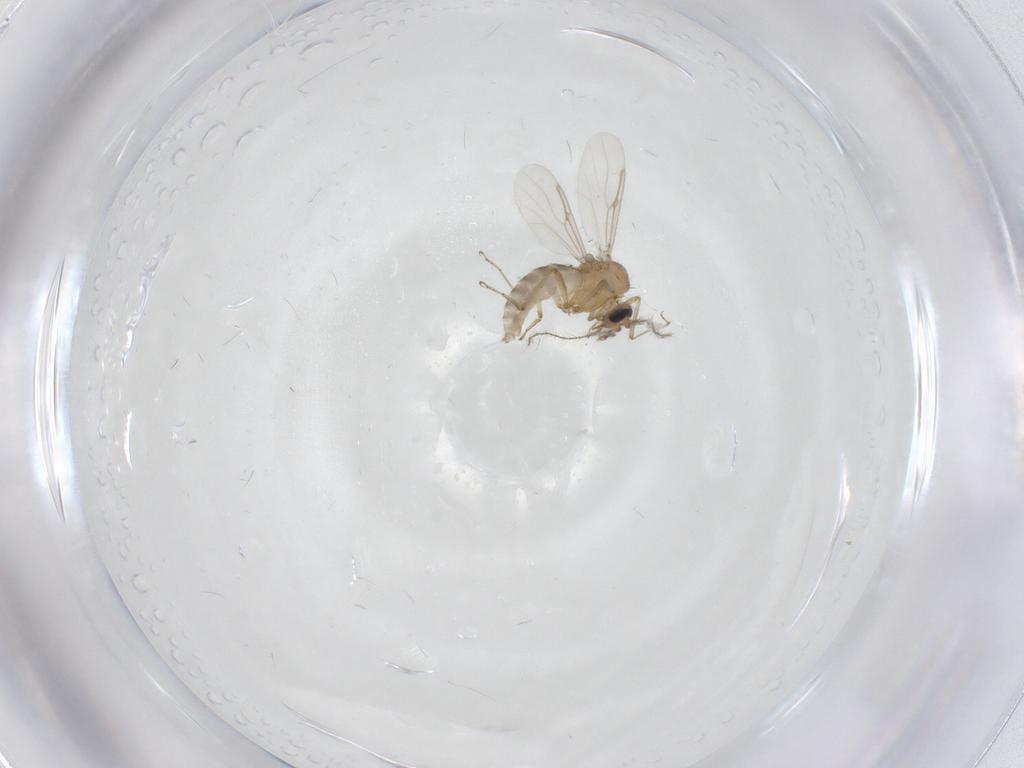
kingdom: Animalia
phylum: Arthropoda
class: Insecta
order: Diptera
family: Ceratopogonidae
